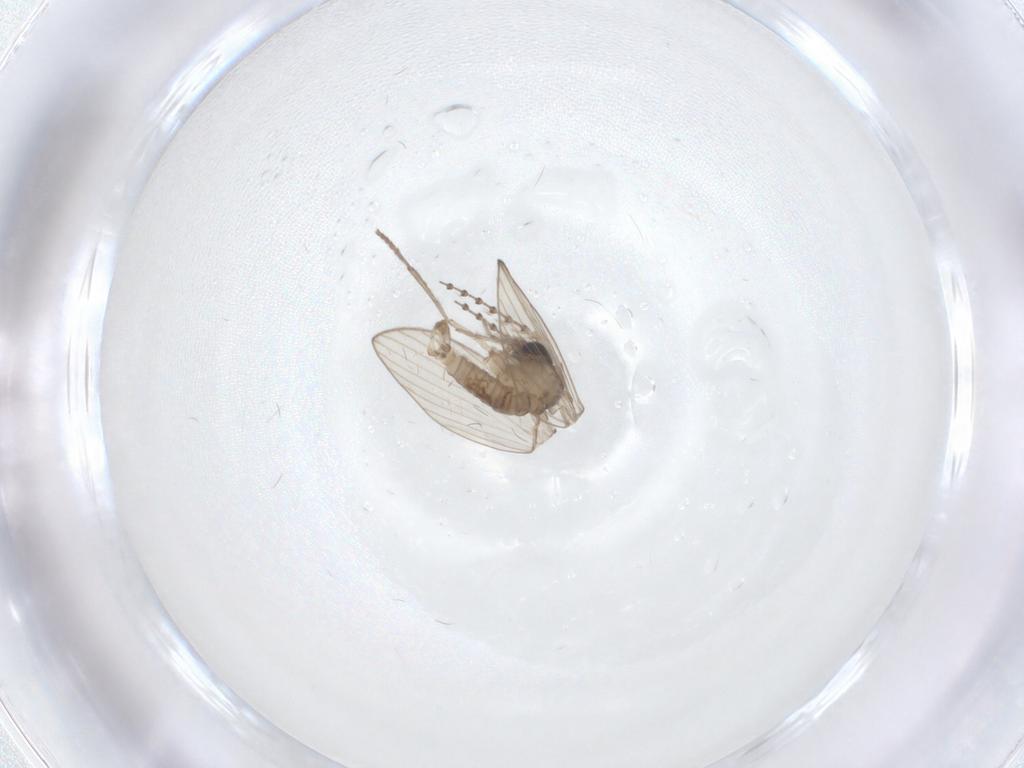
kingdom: Animalia
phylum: Arthropoda
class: Insecta
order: Diptera
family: Psychodidae
